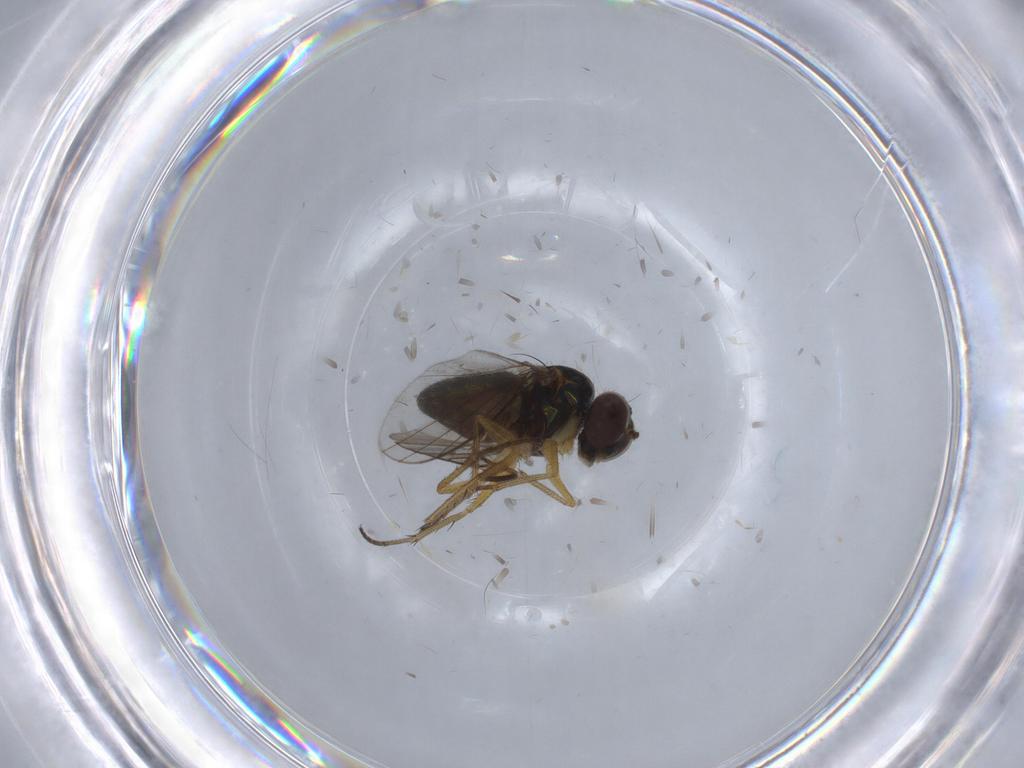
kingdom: Animalia
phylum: Arthropoda
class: Insecta
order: Diptera
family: Chironomidae
